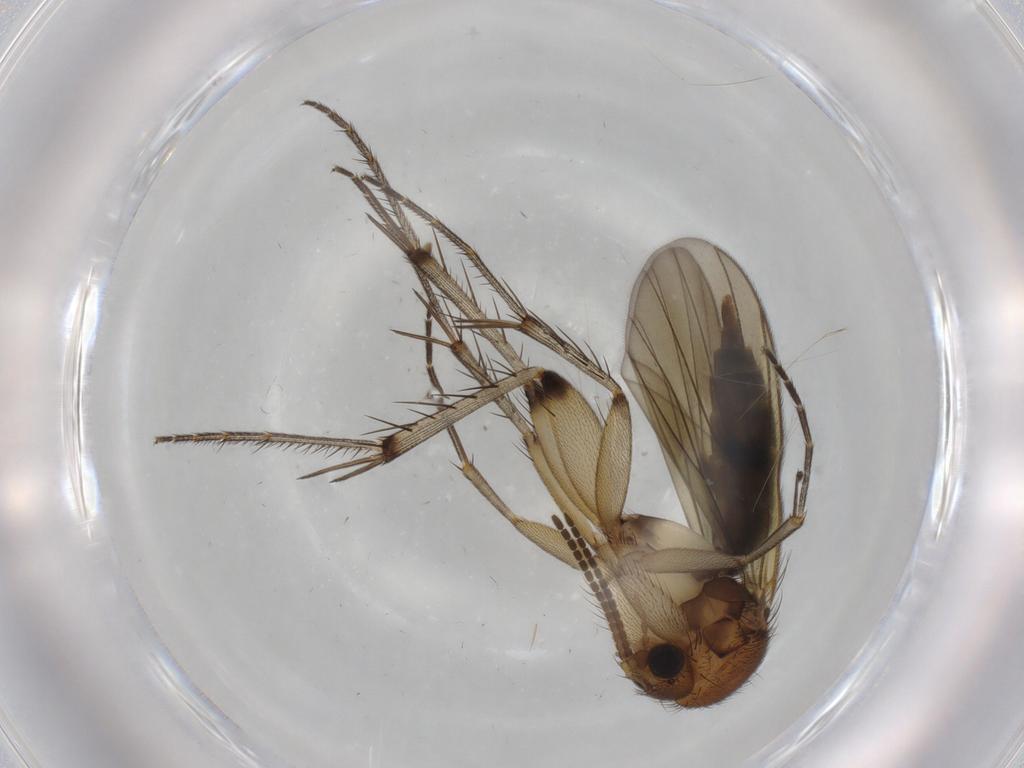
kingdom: Animalia
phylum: Arthropoda
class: Insecta
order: Diptera
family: Mycetophilidae
